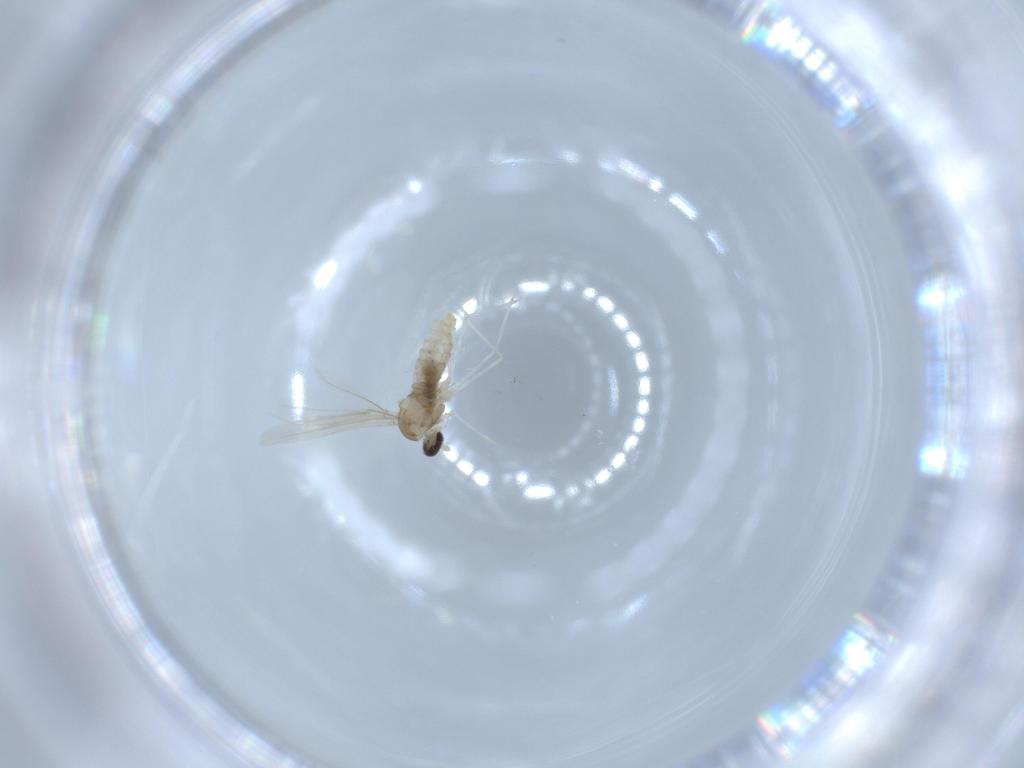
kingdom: Animalia
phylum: Arthropoda
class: Insecta
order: Diptera
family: Cecidomyiidae
